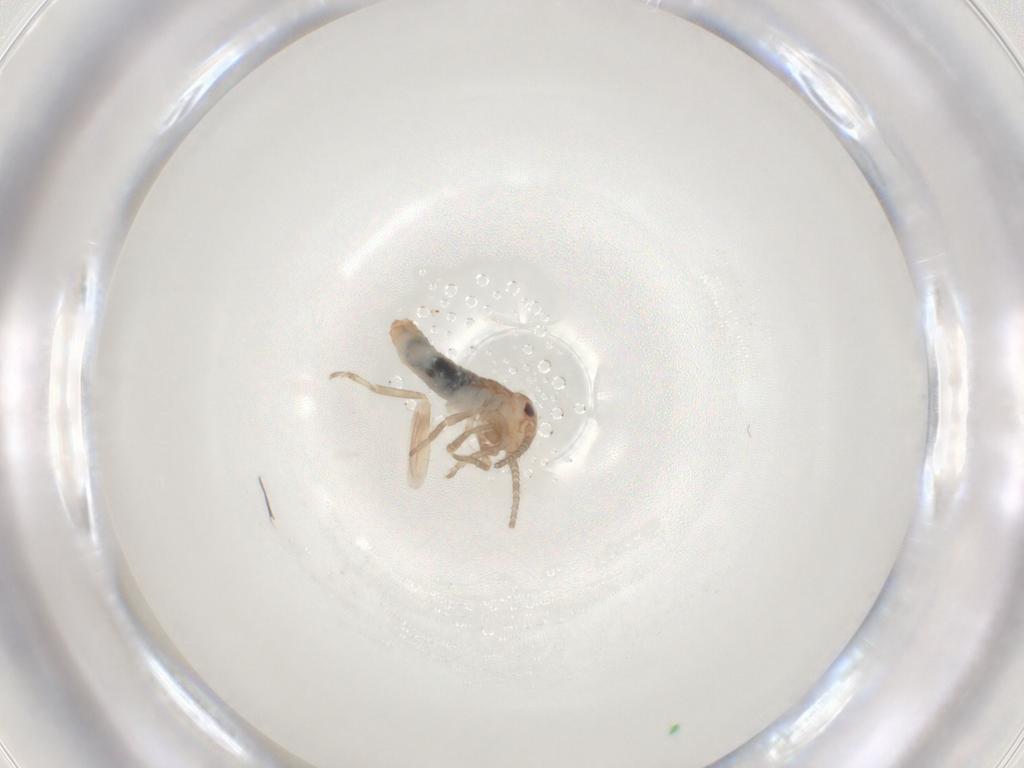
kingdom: Animalia
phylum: Arthropoda
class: Insecta
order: Orthoptera
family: Gryllidae
